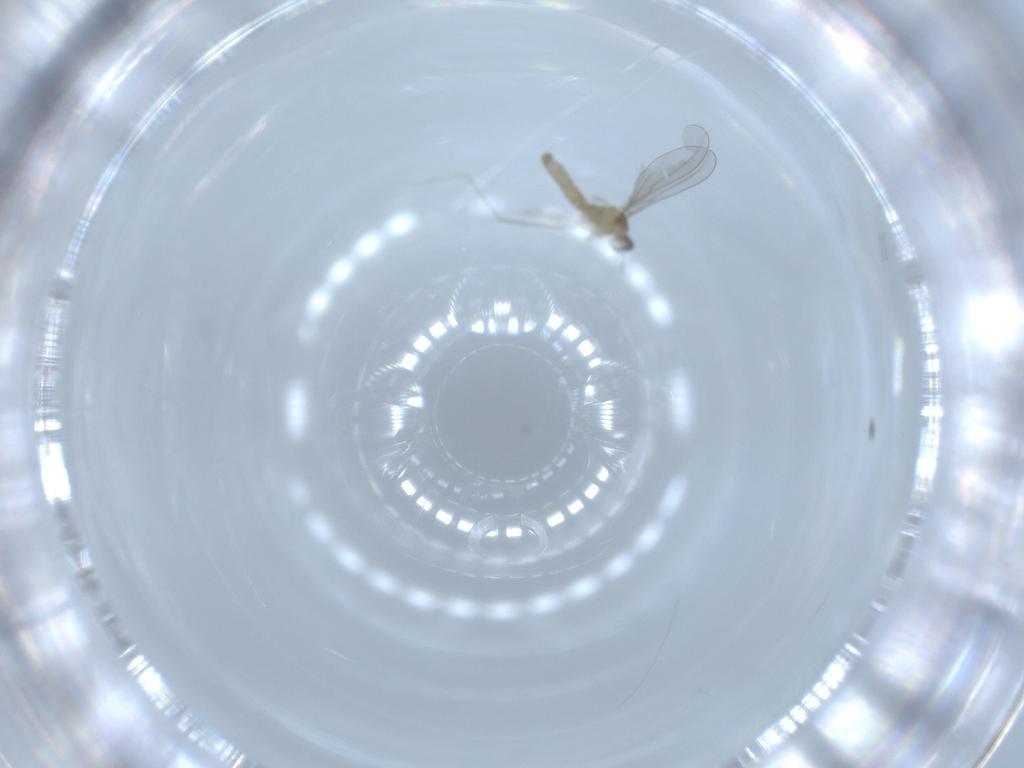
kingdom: Animalia
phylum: Arthropoda
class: Insecta
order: Diptera
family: Cecidomyiidae
